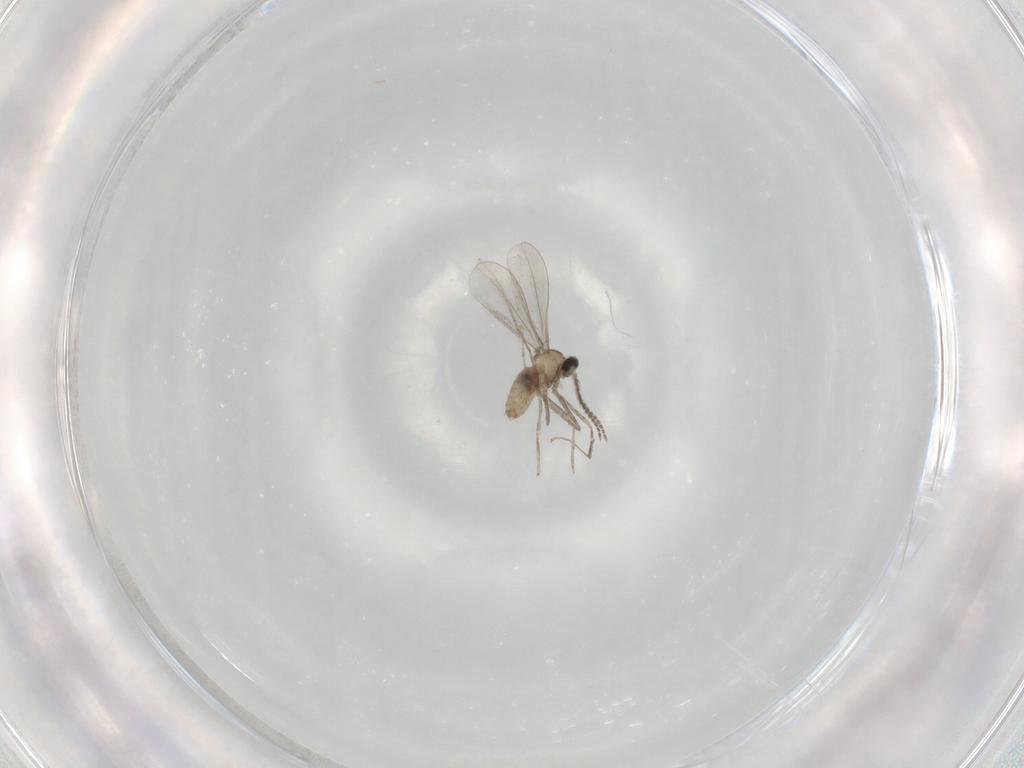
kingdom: Animalia
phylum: Arthropoda
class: Insecta
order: Diptera
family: Cecidomyiidae
